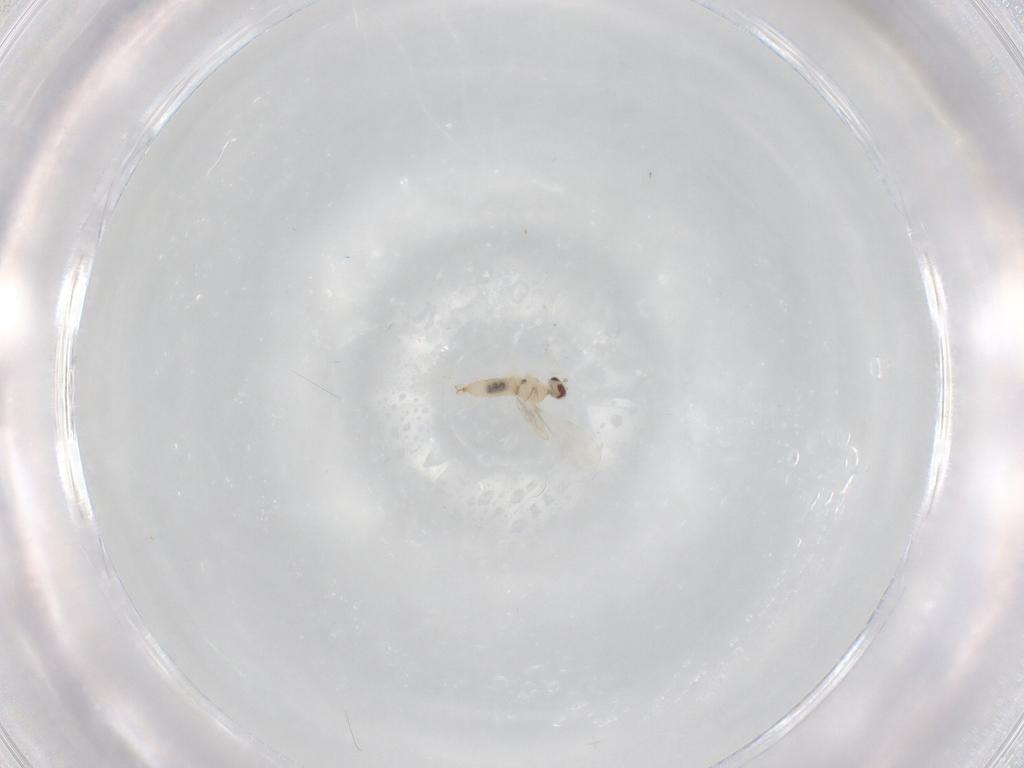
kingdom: Animalia
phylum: Arthropoda
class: Insecta
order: Diptera
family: Cecidomyiidae
